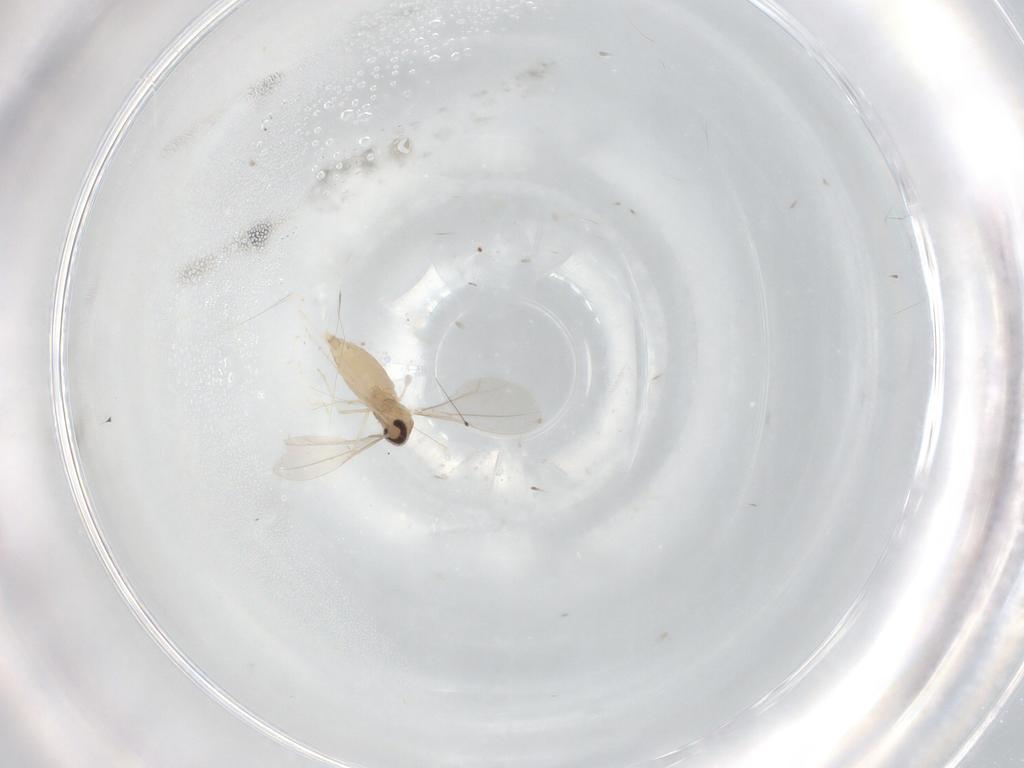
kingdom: Animalia
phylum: Arthropoda
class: Insecta
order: Diptera
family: Cecidomyiidae
